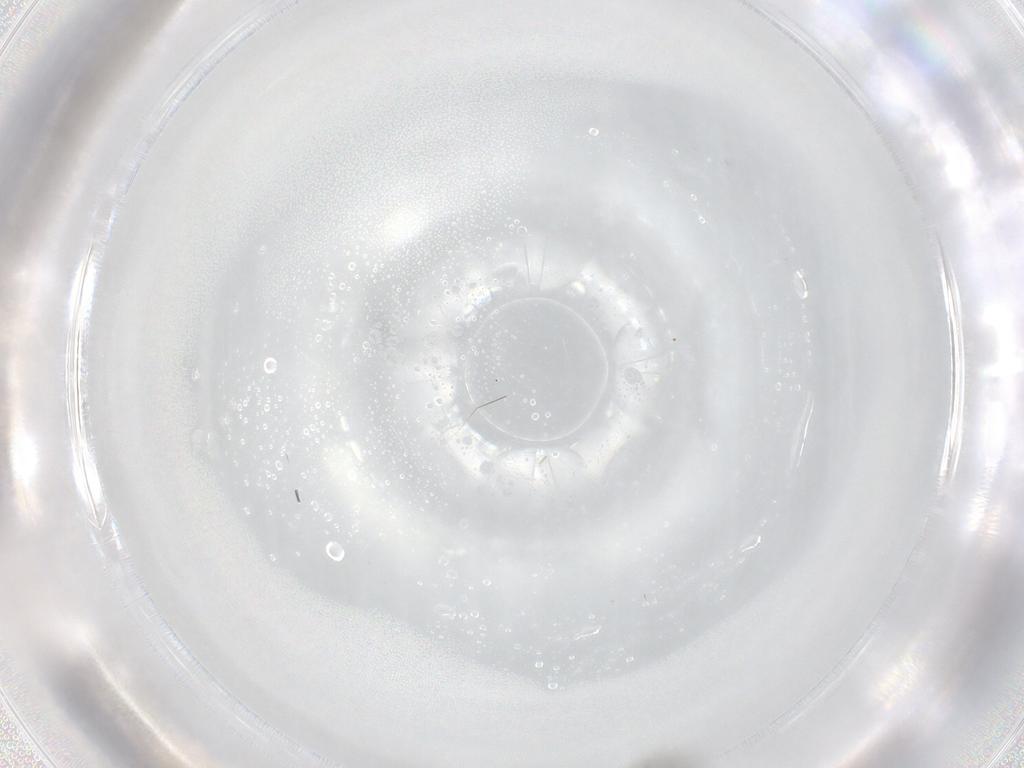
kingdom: Animalia
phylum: Arthropoda
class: Insecta
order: Diptera
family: Phoridae
